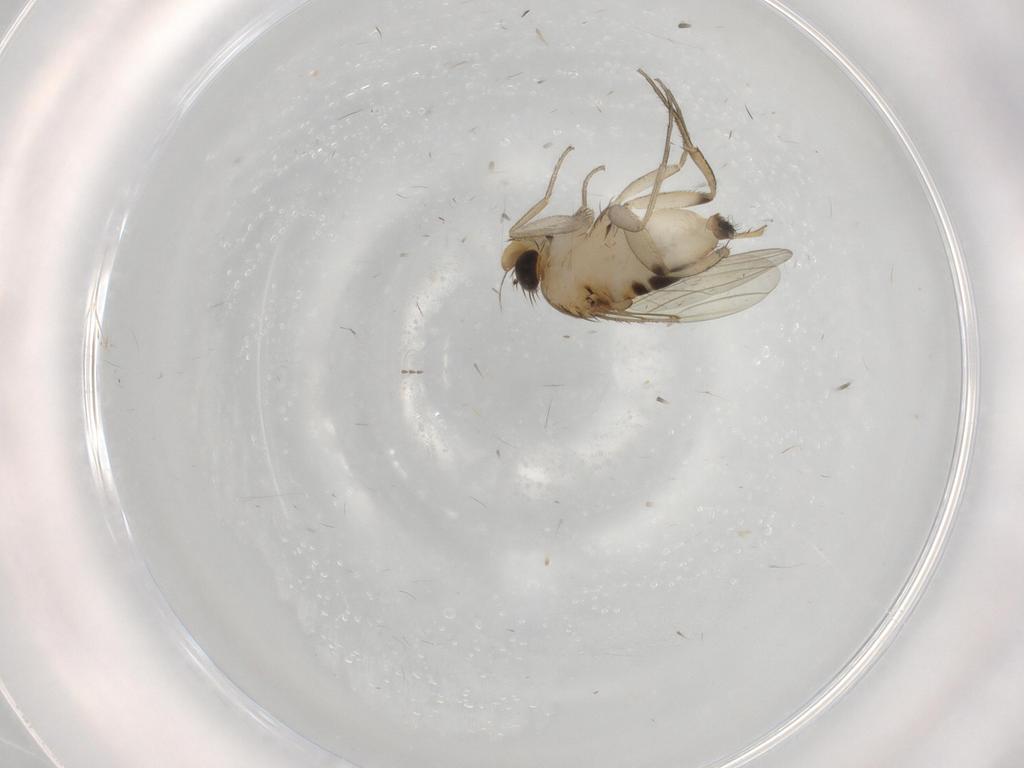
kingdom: Animalia
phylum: Arthropoda
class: Insecta
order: Diptera
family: Phoridae
